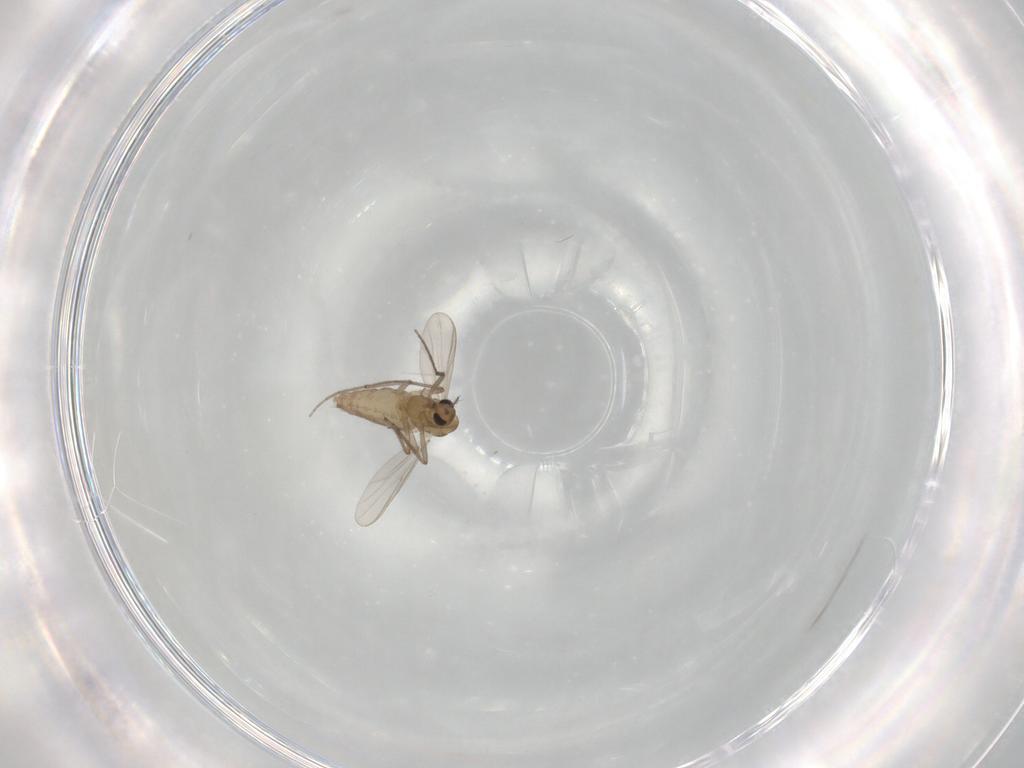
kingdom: Animalia
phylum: Arthropoda
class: Insecta
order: Diptera
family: Chironomidae
